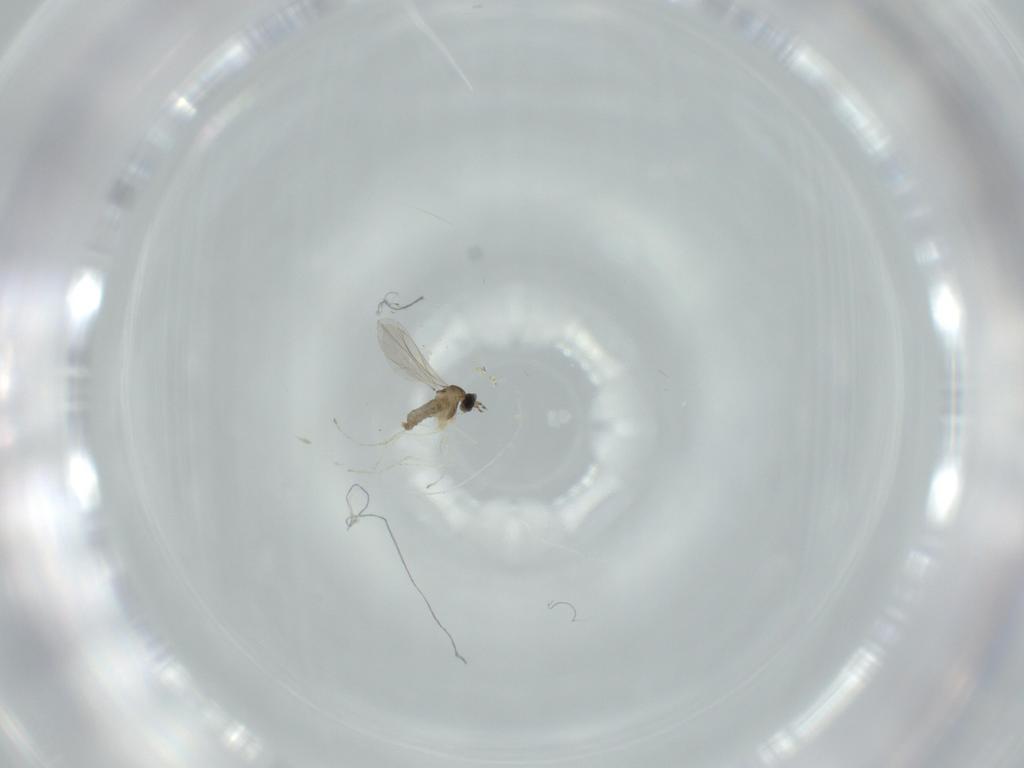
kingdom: Animalia
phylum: Arthropoda
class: Insecta
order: Diptera
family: Cecidomyiidae
